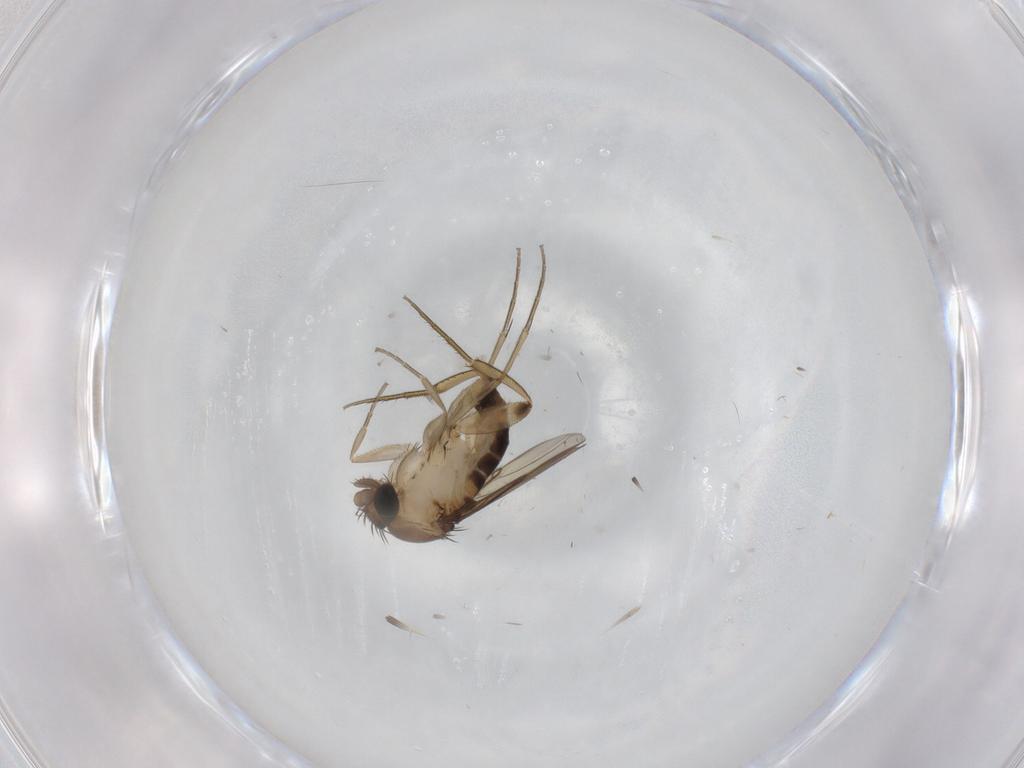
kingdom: Animalia
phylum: Arthropoda
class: Insecta
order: Diptera
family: Phoridae
